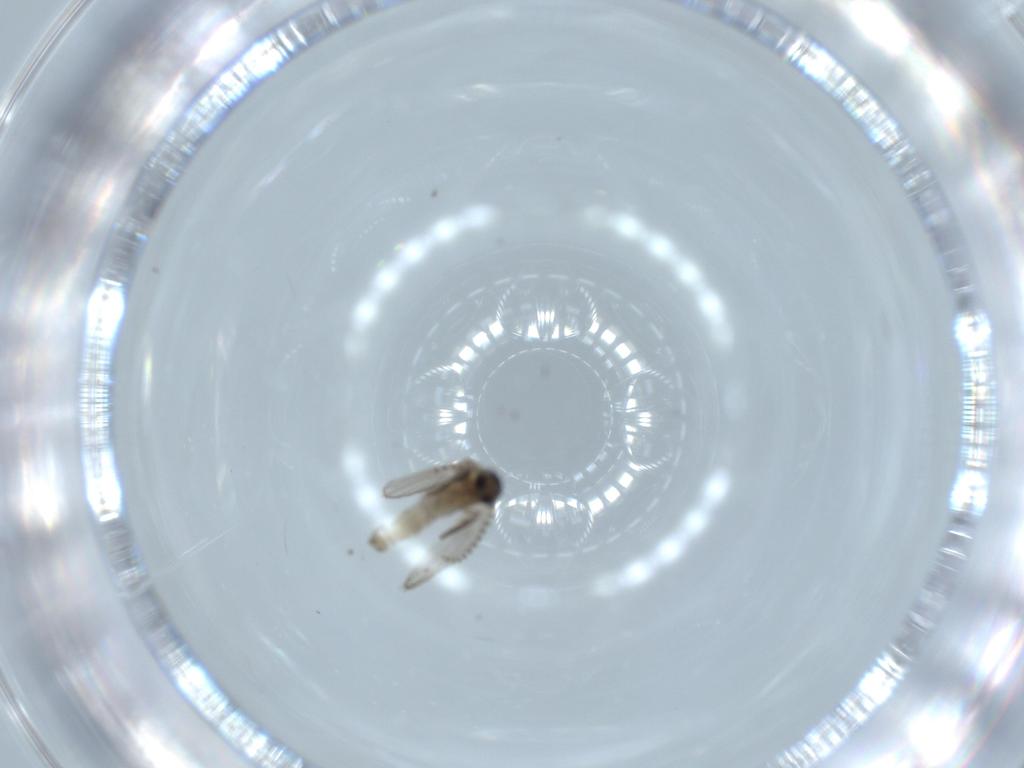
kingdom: Animalia
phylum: Arthropoda
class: Insecta
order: Diptera
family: Psychodidae
